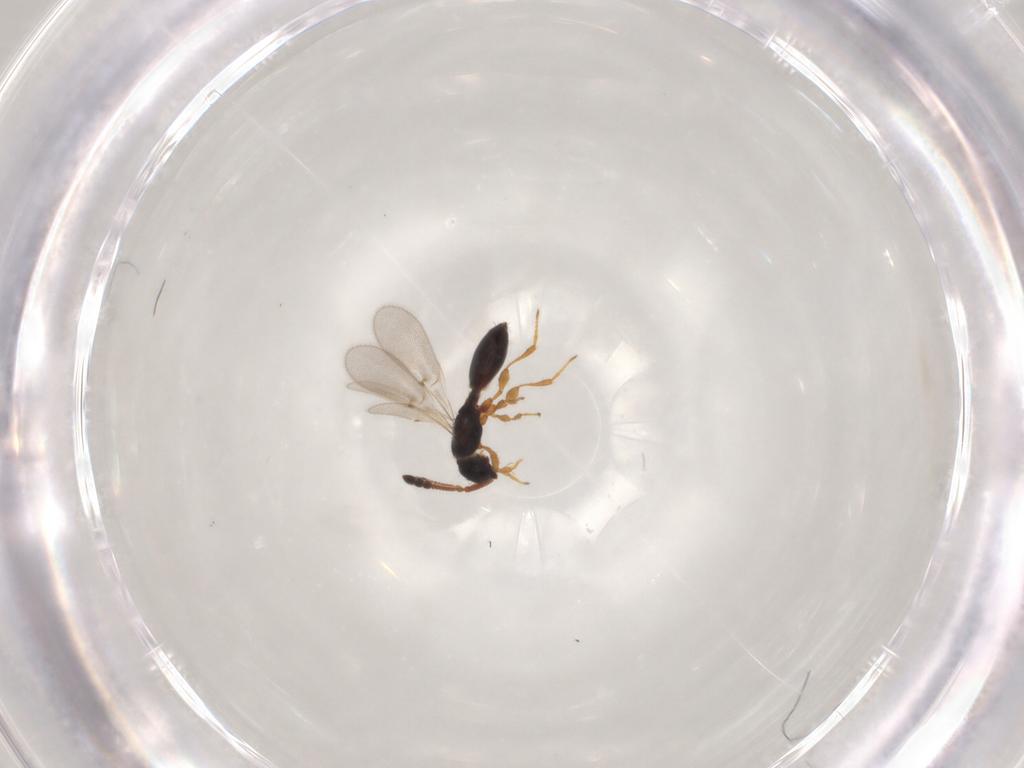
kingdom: Animalia
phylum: Arthropoda
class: Insecta
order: Hymenoptera
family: Diapriidae
